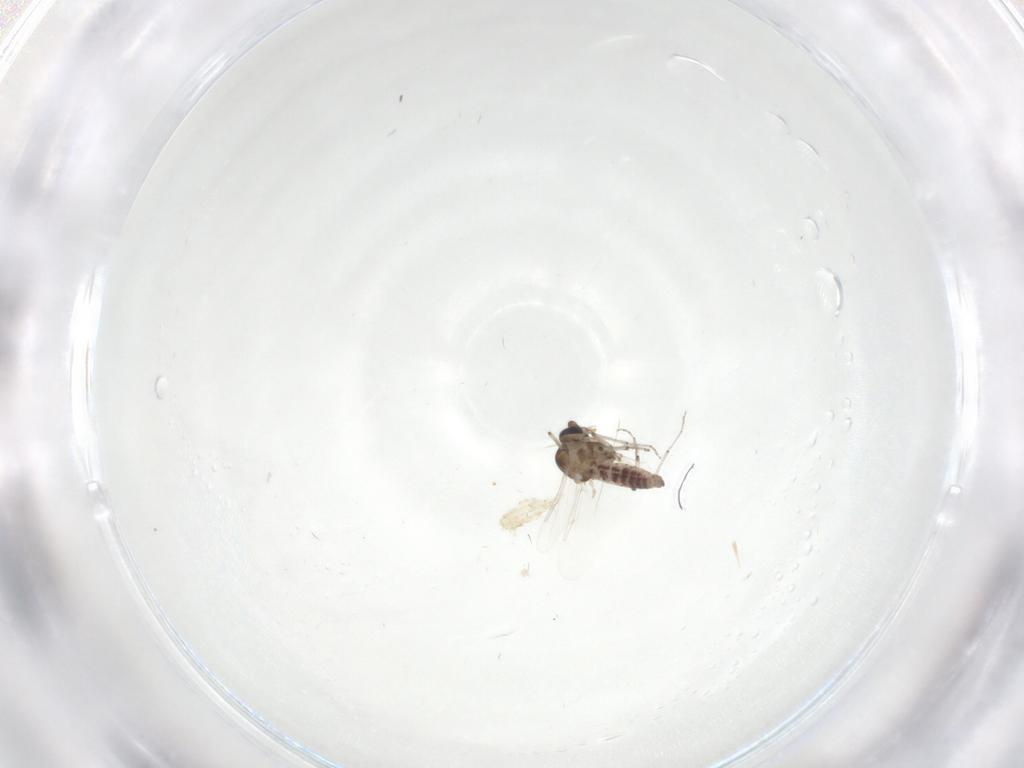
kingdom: Animalia
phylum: Arthropoda
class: Insecta
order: Diptera
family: Ceratopogonidae
